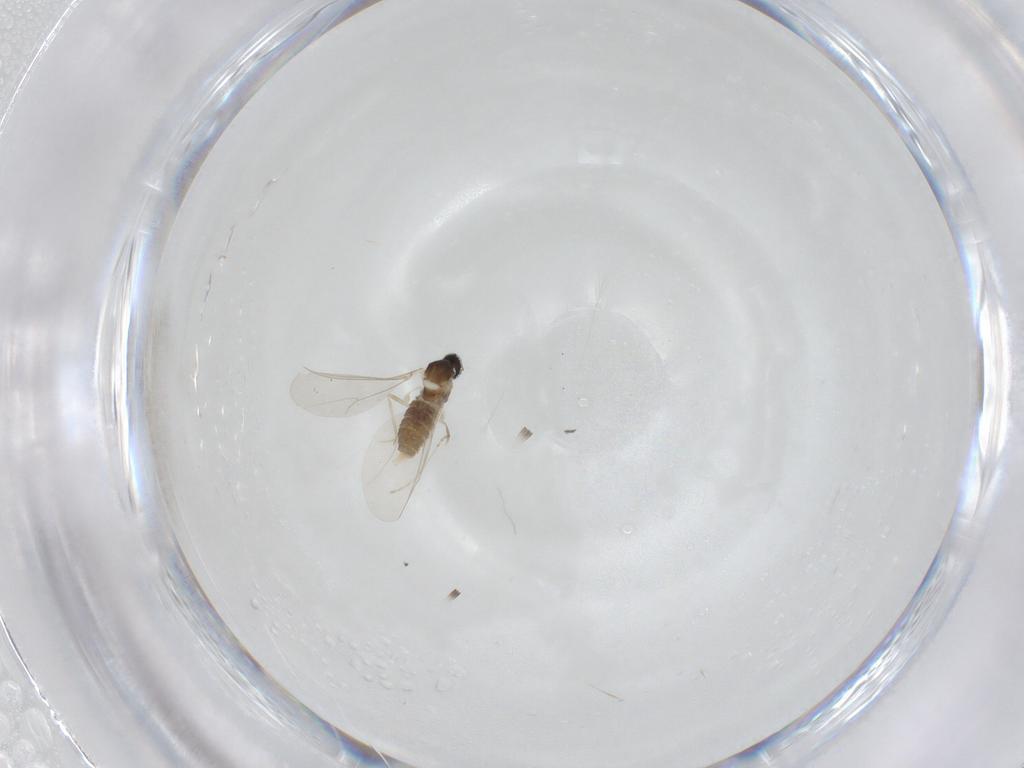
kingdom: Animalia
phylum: Arthropoda
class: Insecta
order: Diptera
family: Cecidomyiidae
